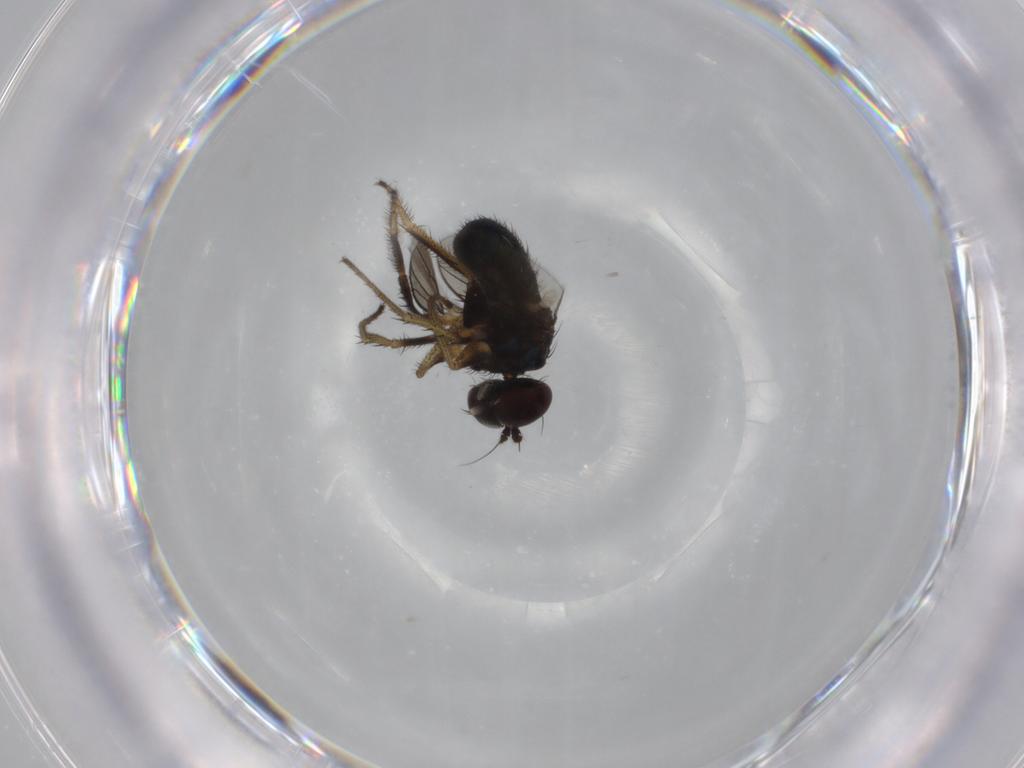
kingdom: Animalia
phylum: Arthropoda
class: Insecta
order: Diptera
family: Dolichopodidae
